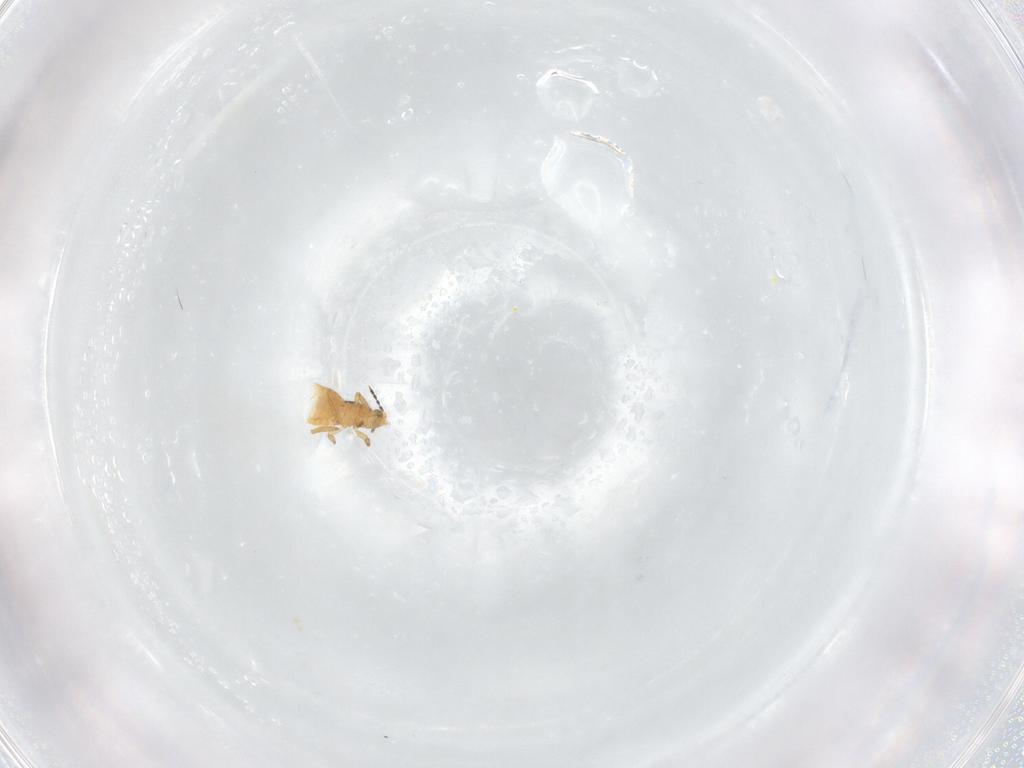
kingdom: Animalia
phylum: Arthropoda
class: Insecta
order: Thysanoptera
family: Thripidae
